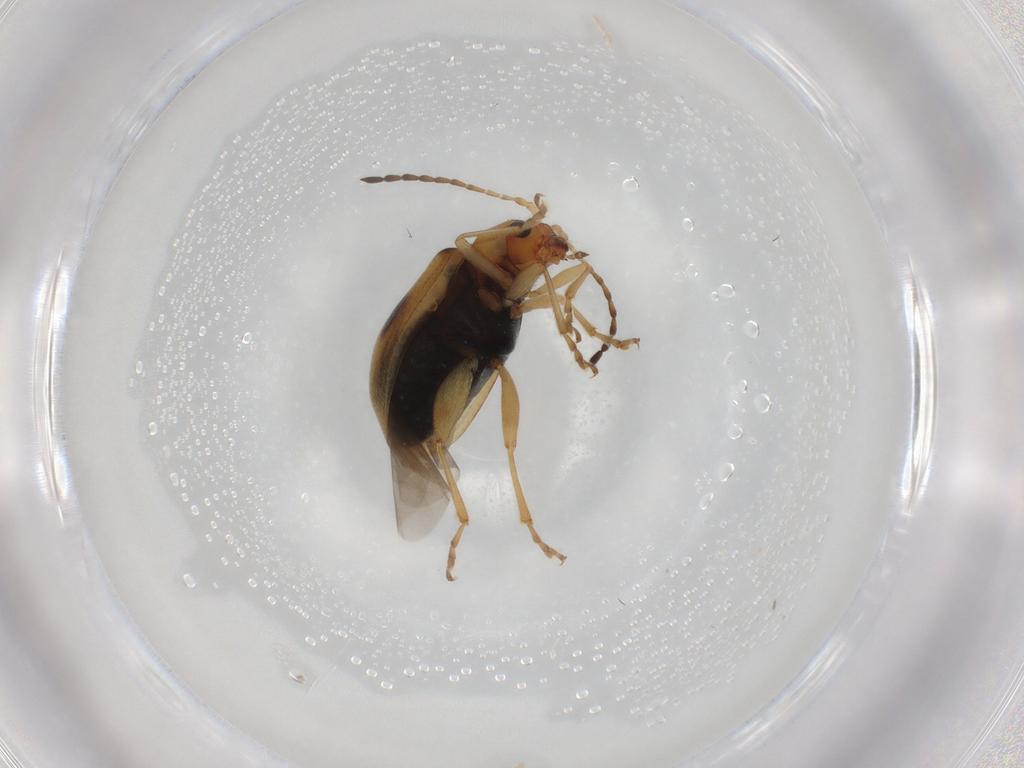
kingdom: Animalia
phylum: Arthropoda
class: Insecta
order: Coleoptera
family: Chrysomelidae
